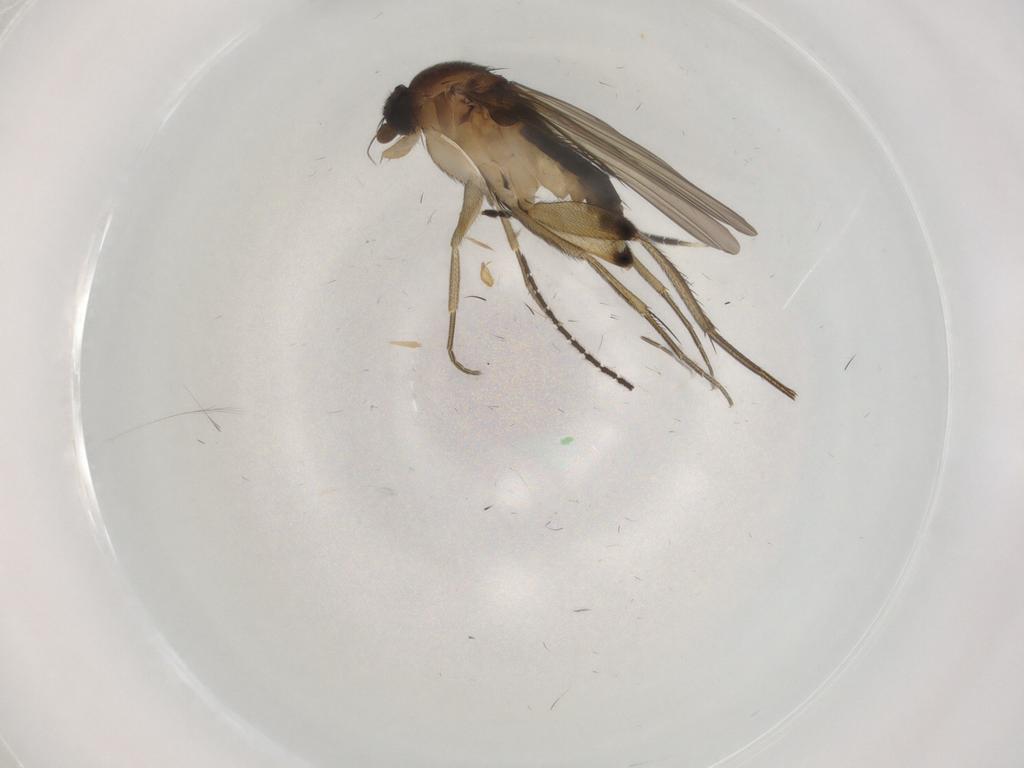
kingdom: Animalia
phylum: Arthropoda
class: Insecta
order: Diptera
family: Phoridae
